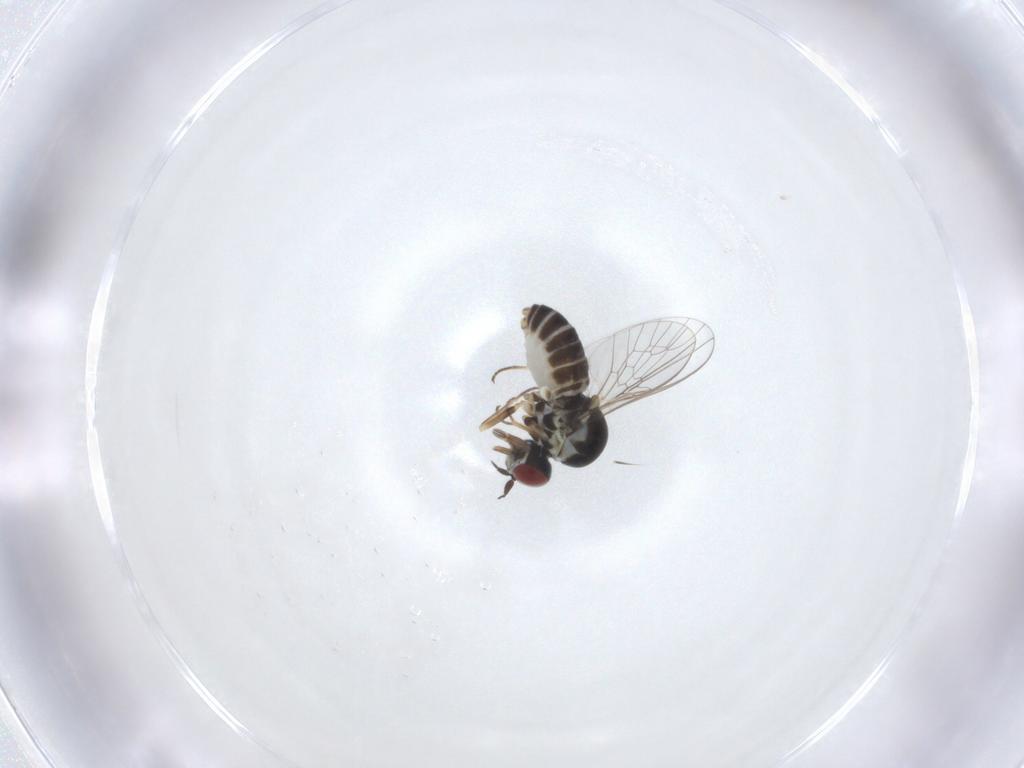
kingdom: Animalia
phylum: Arthropoda
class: Insecta
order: Diptera
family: Mythicomyiidae
